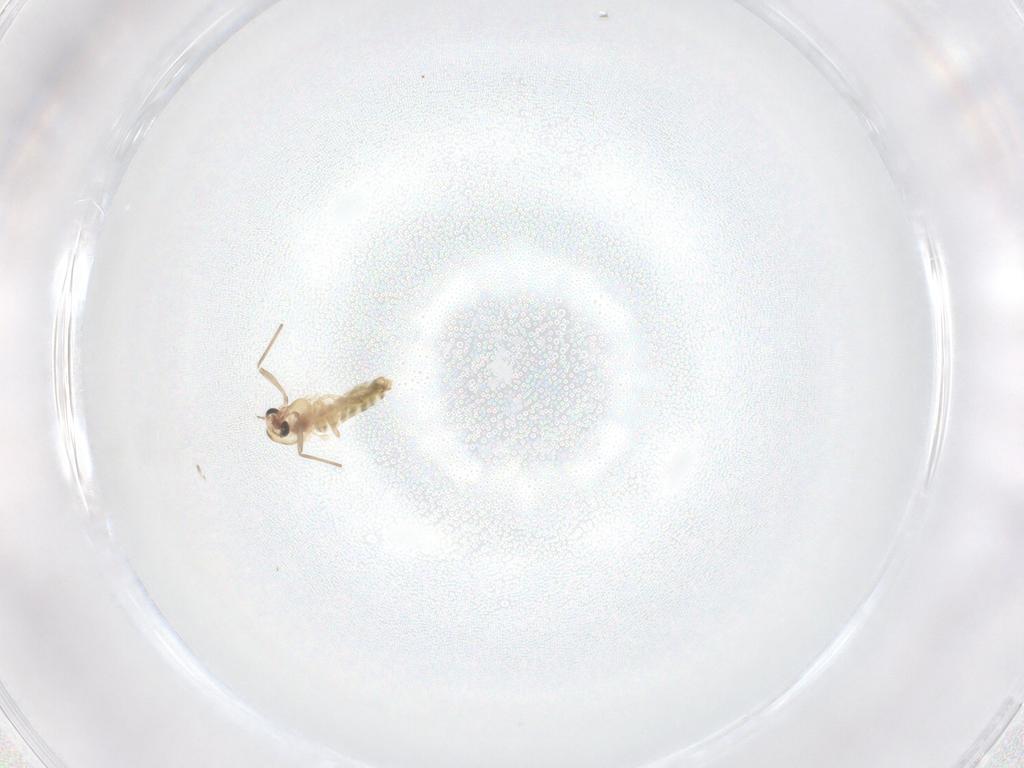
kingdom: Animalia
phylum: Arthropoda
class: Insecta
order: Diptera
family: Chironomidae
